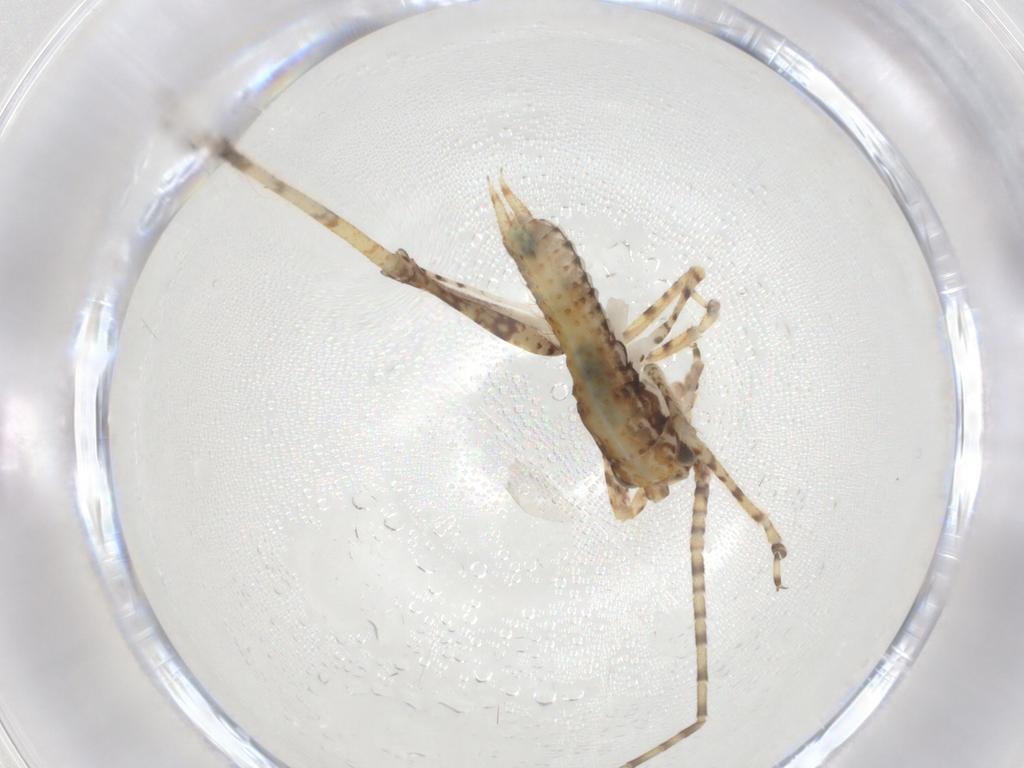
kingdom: Animalia
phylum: Arthropoda
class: Insecta
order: Orthoptera
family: Gryllidae
